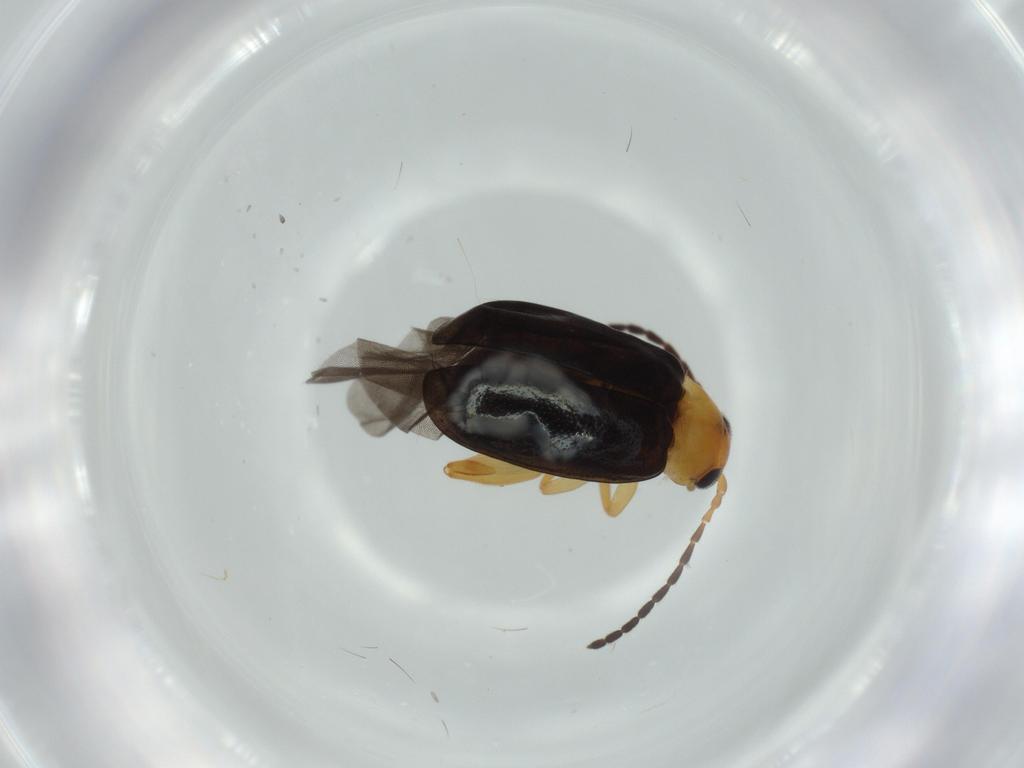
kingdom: Animalia
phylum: Arthropoda
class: Insecta
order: Coleoptera
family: Chrysomelidae
